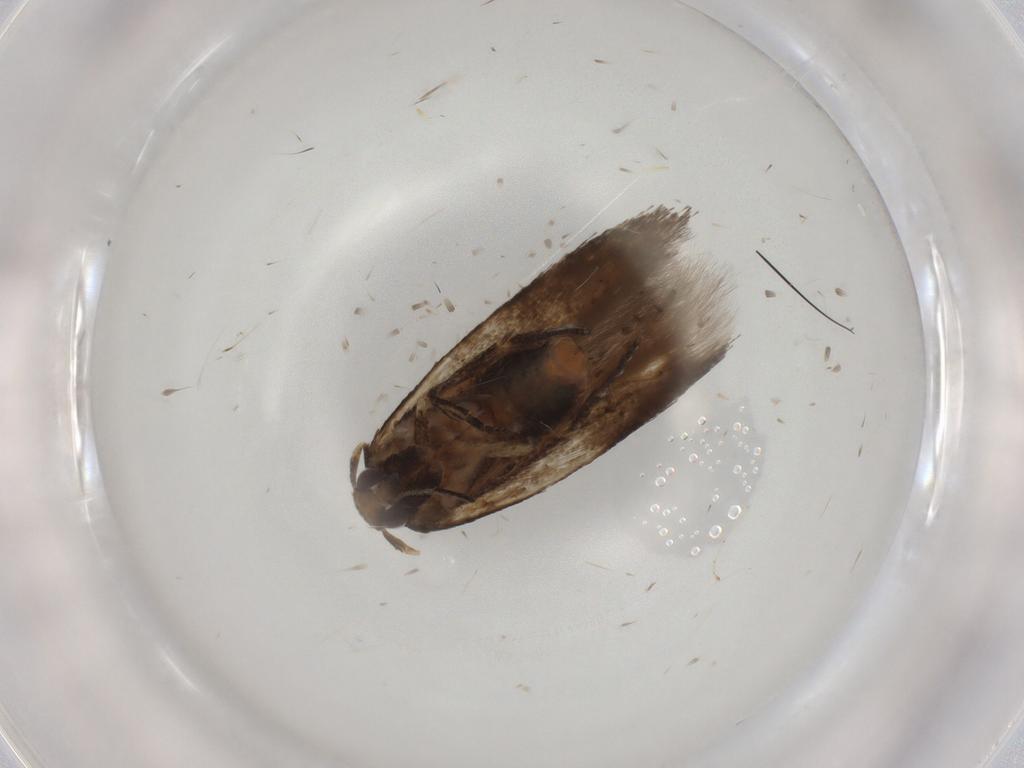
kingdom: Animalia
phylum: Arthropoda
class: Insecta
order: Lepidoptera
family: Cosmopterigidae
